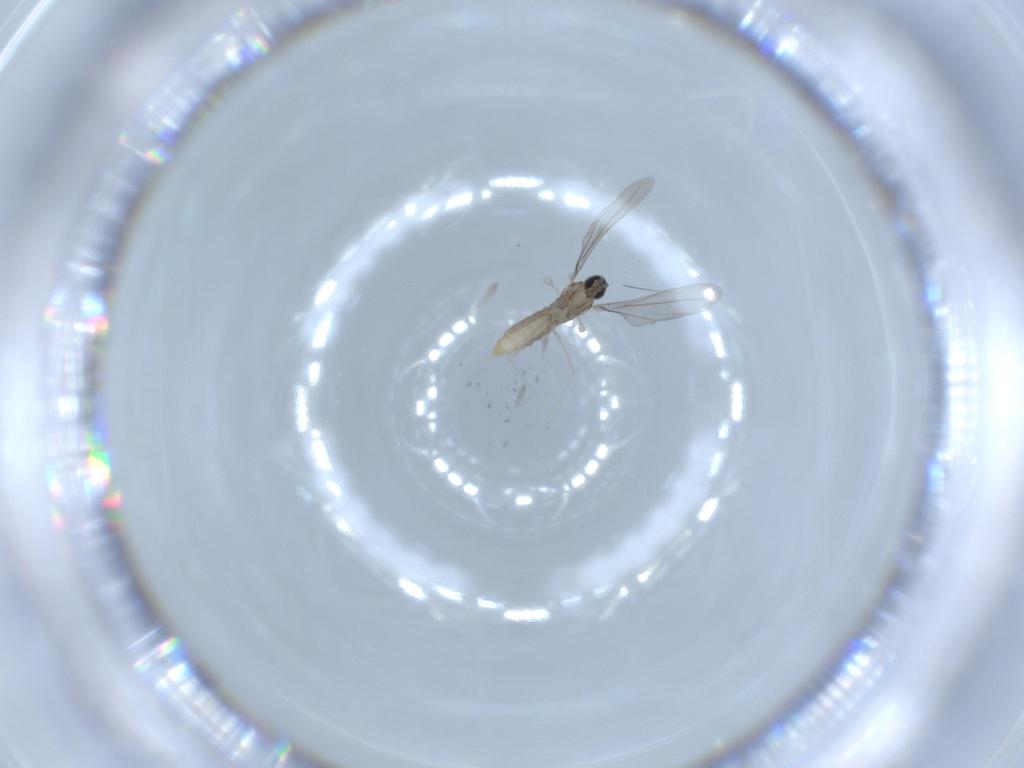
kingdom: Animalia
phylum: Arthropoda
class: Insecta
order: Diptera
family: Cecidomyiidae
